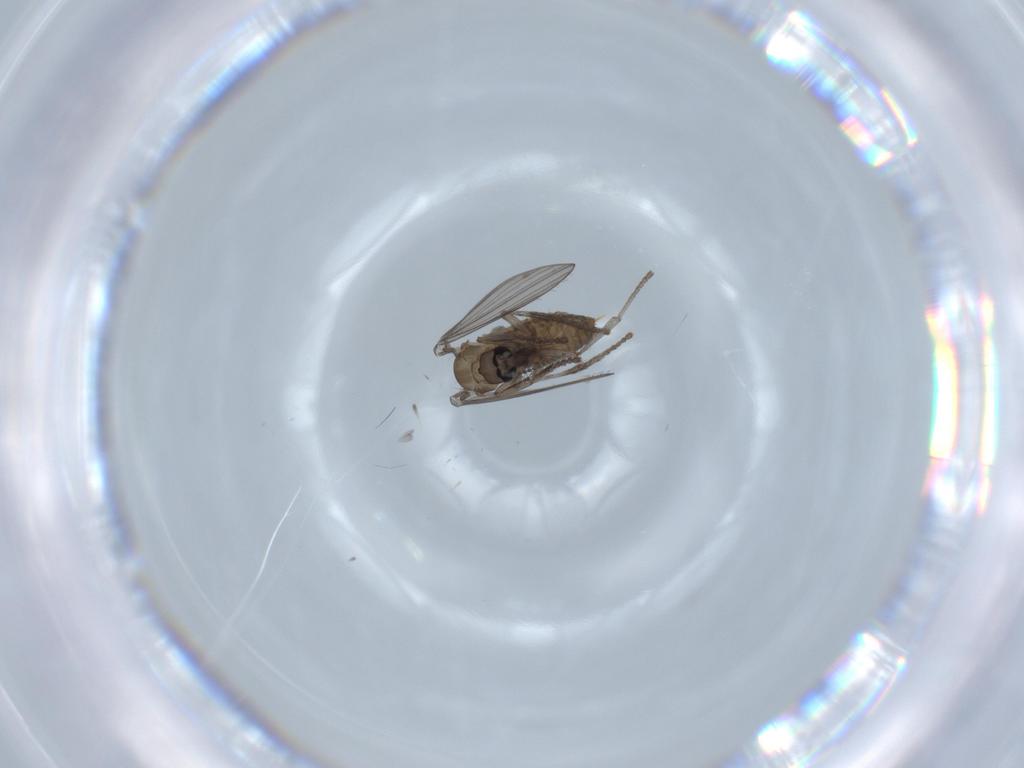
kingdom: Animalia
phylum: Arthropoda
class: Insecta
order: Diptera
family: Psychodidae
